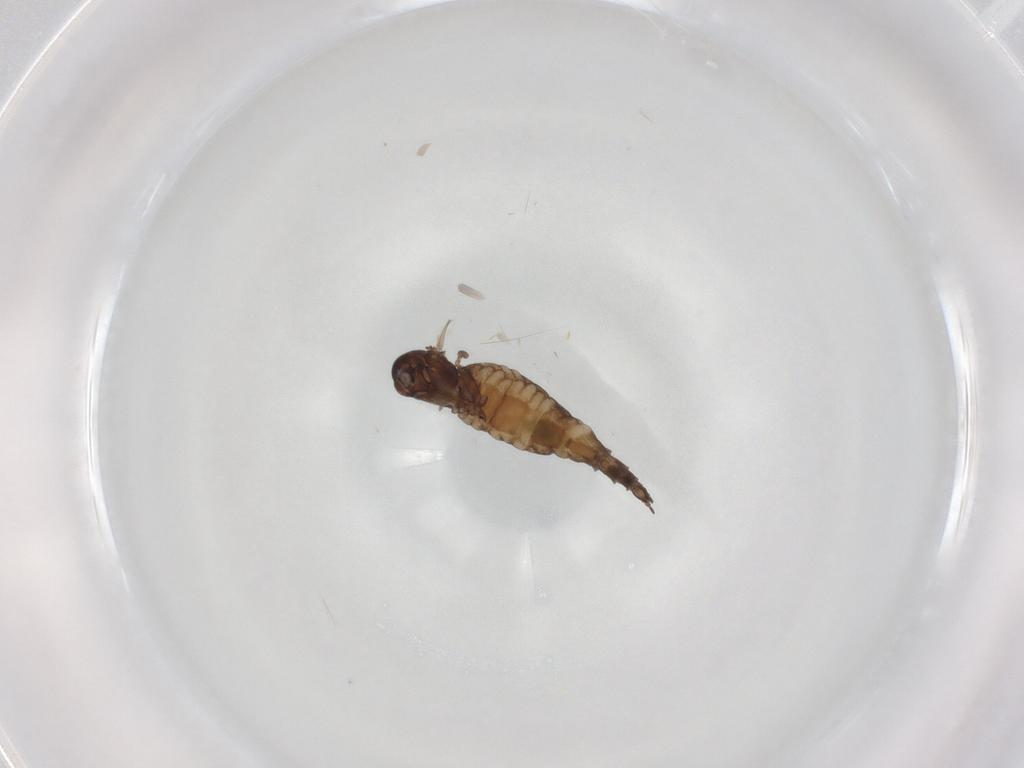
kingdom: Animalia
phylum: Arthropoda
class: Insecta
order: Diptera
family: Sciaridae
